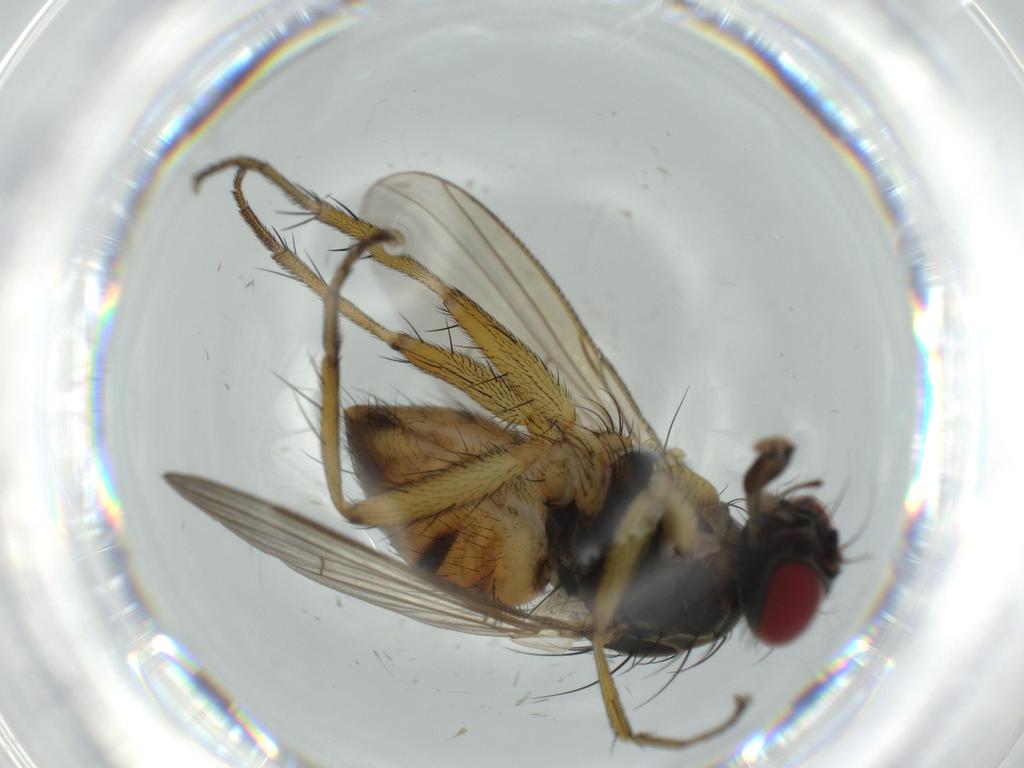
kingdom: Animalia
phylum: Arthropoda
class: Insecta
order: Diptera
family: Muscidae
